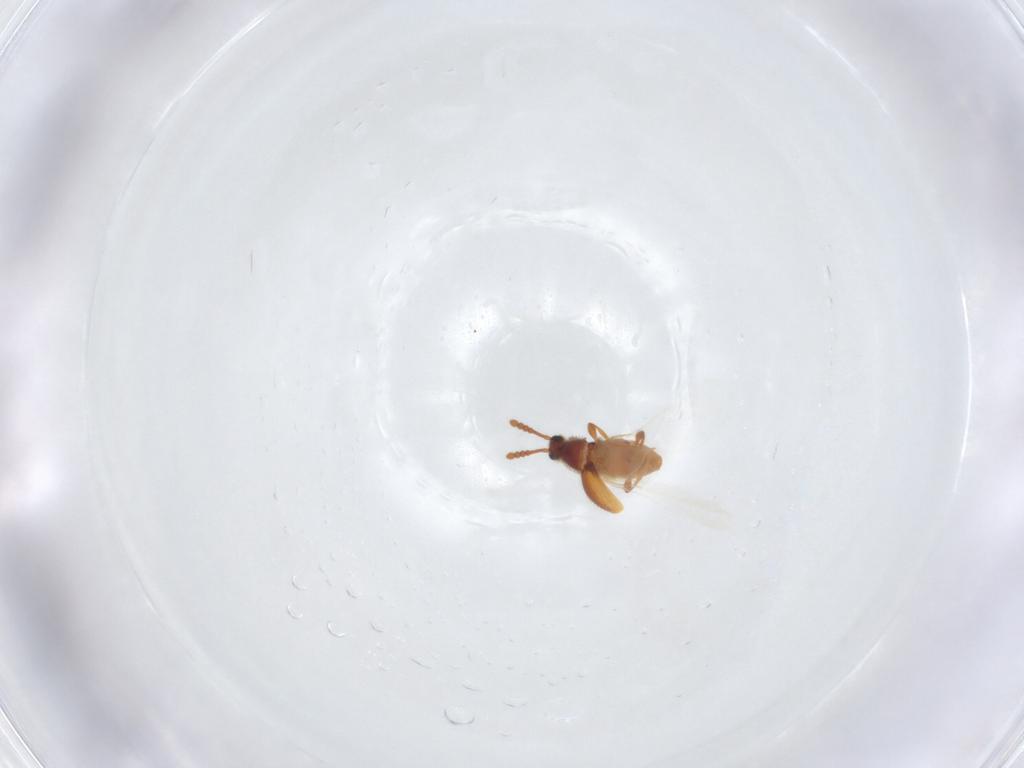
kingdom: Animalia
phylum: Arthropoda
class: Insecta
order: Coleoptera
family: Staphylinidae
